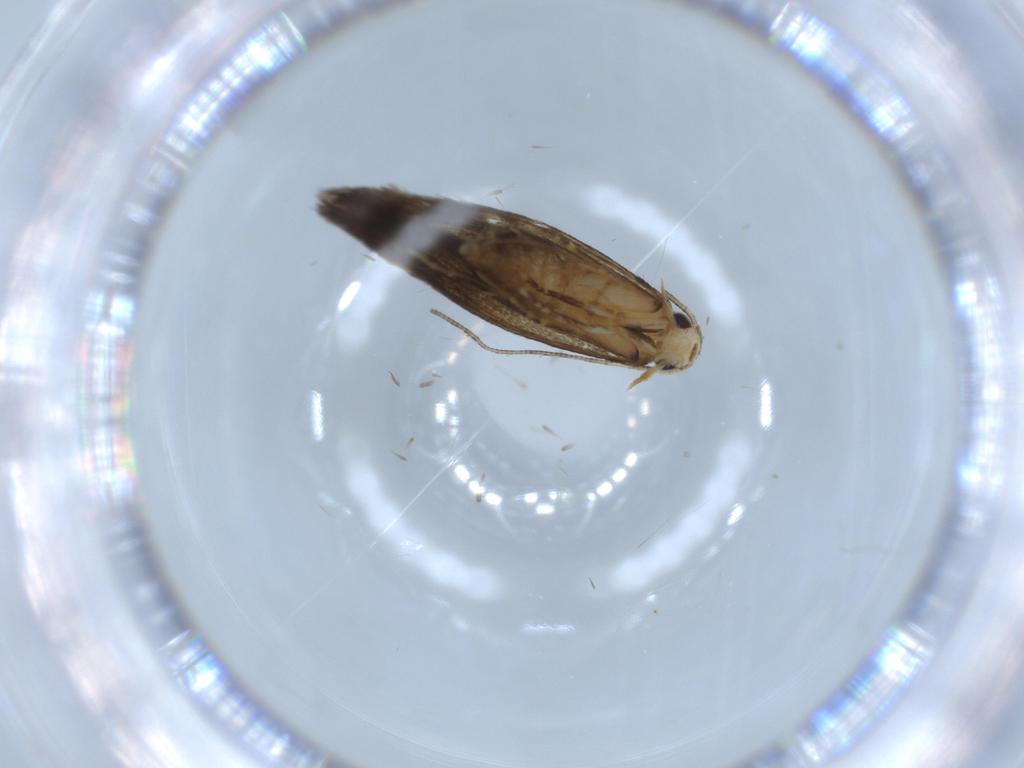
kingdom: Animalia
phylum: Arthropoda
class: Insecta
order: Lepidoptera
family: Tineidae
